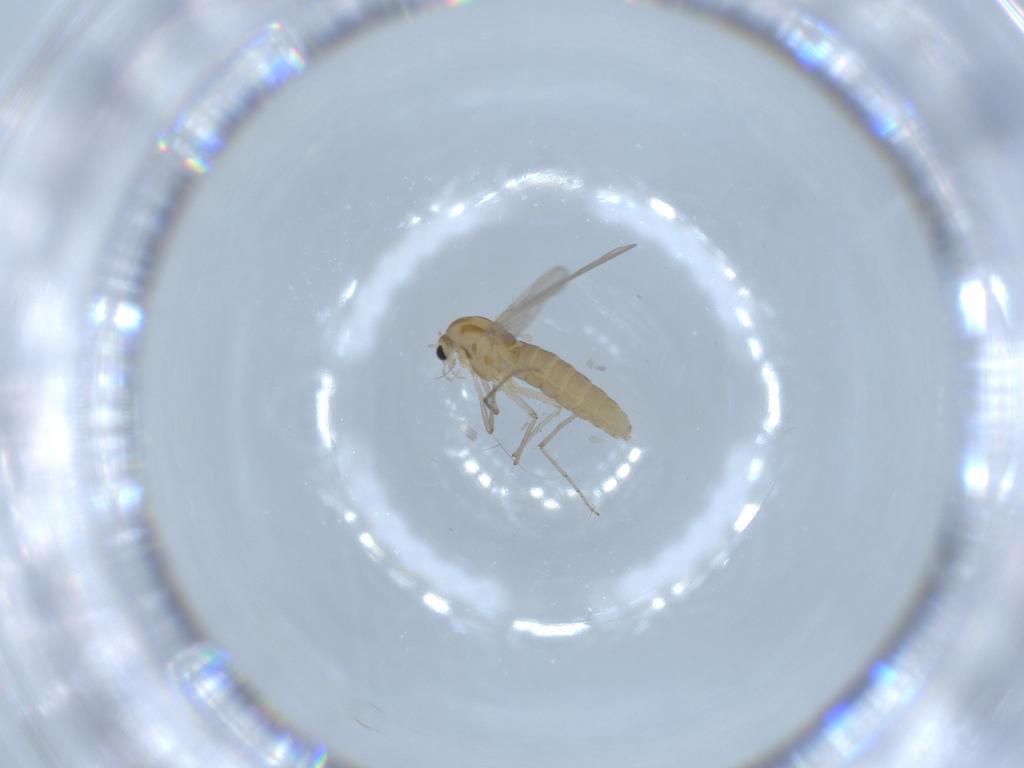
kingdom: Animalia
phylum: Arthropoda
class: Insecta
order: Diptera
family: Chironomidae
